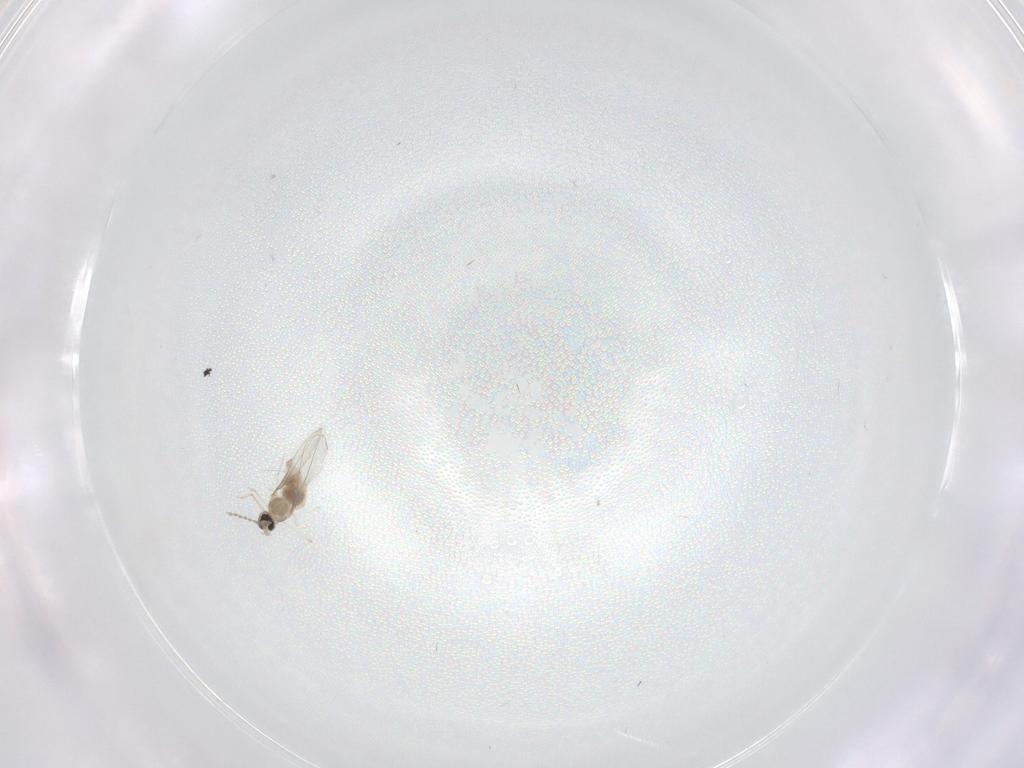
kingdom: Animalia
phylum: Arthropoda
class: Insecta
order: Diptera
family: Cecidomyiidae
